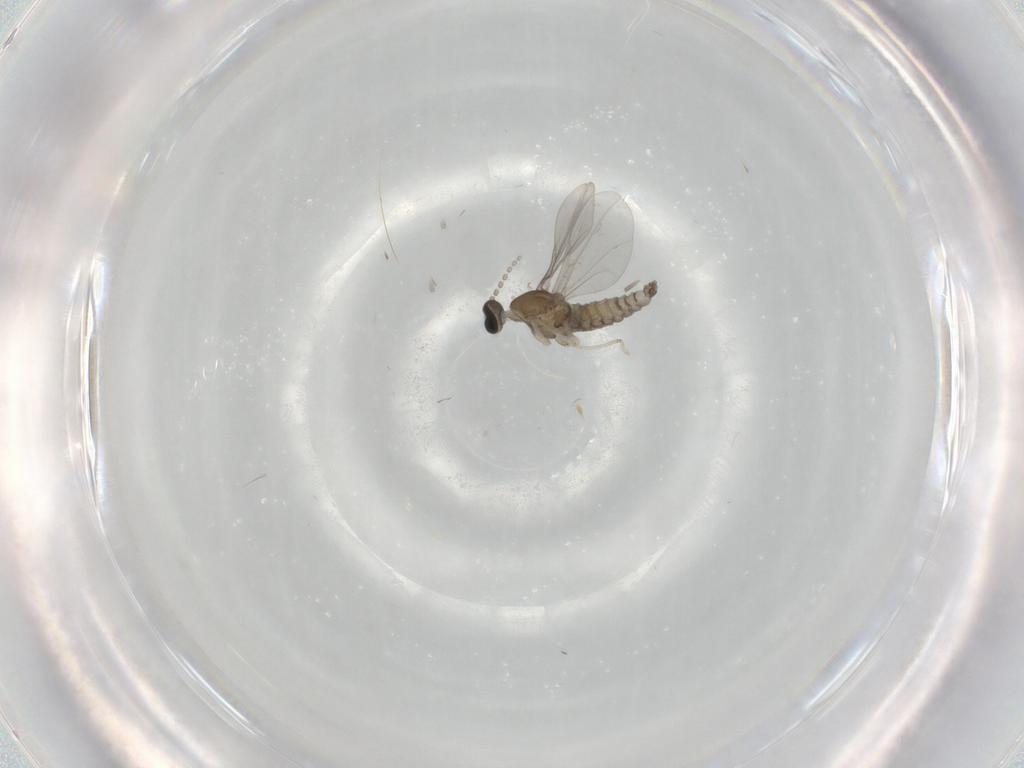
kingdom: Animalia
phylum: Arthropoda
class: Insecta
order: Diptera
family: Cecidomyiidae
